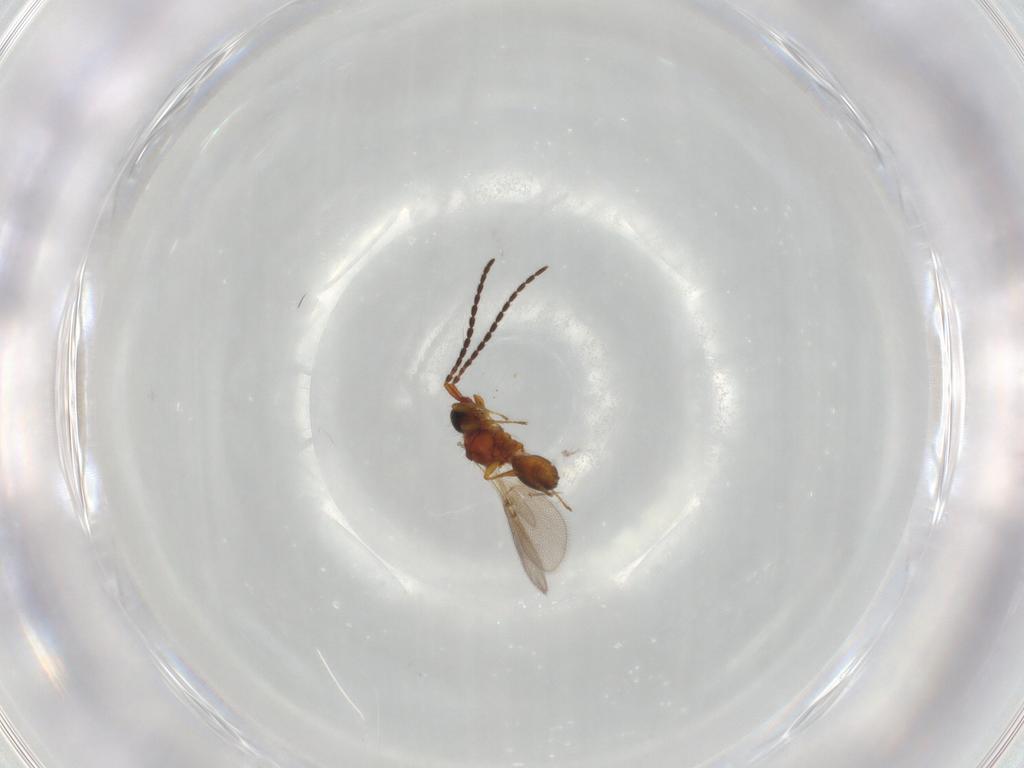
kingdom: Animalia
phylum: Arthropoda
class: Insecta
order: Hymenoptera
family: Diapriidae
